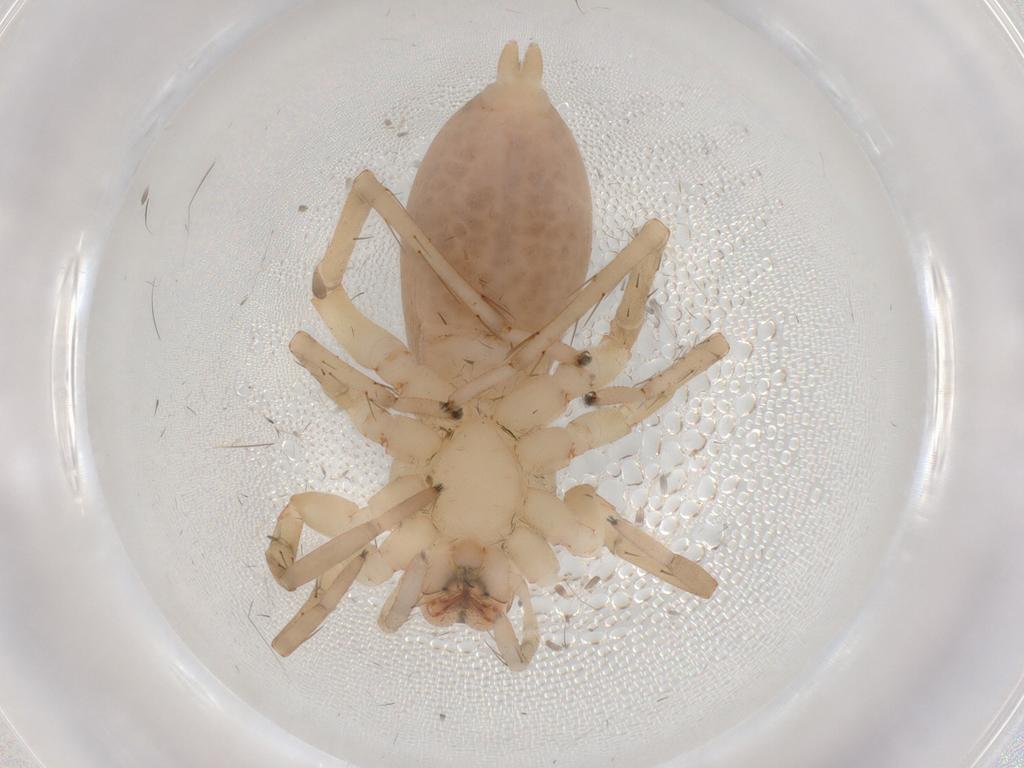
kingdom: Animalia
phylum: Arthropoda
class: Arachnida
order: Araneae
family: Clubionidae
